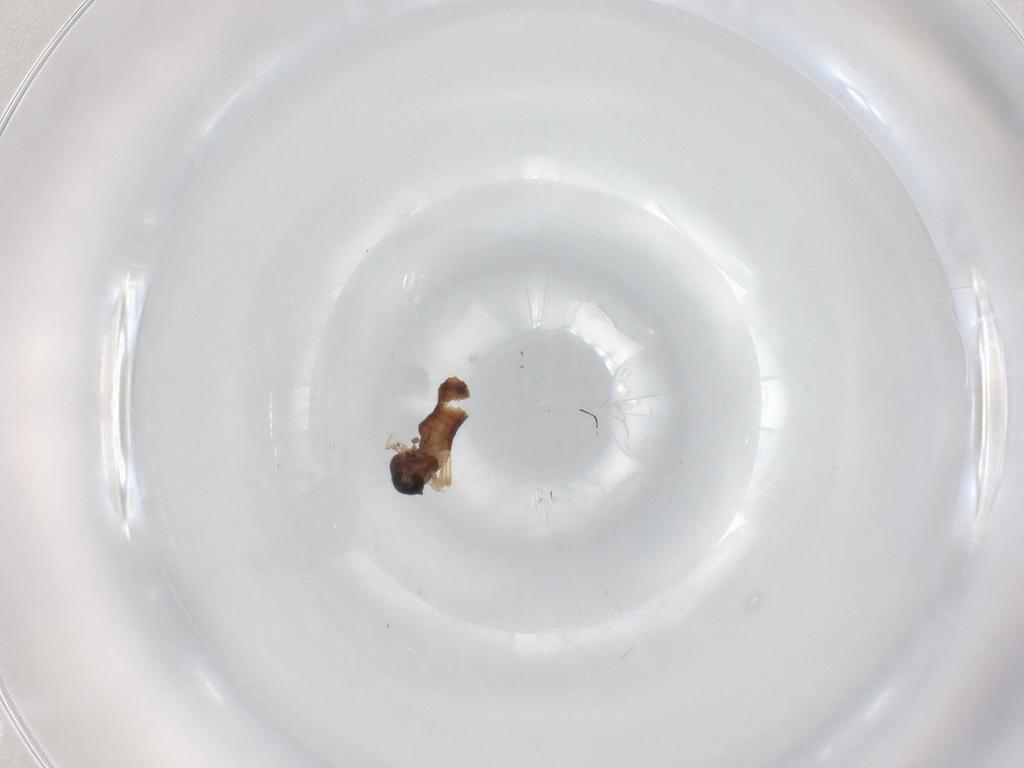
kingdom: Animalia
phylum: Arthropoda
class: Insecta
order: Diptera
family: Ceratopogonidae
